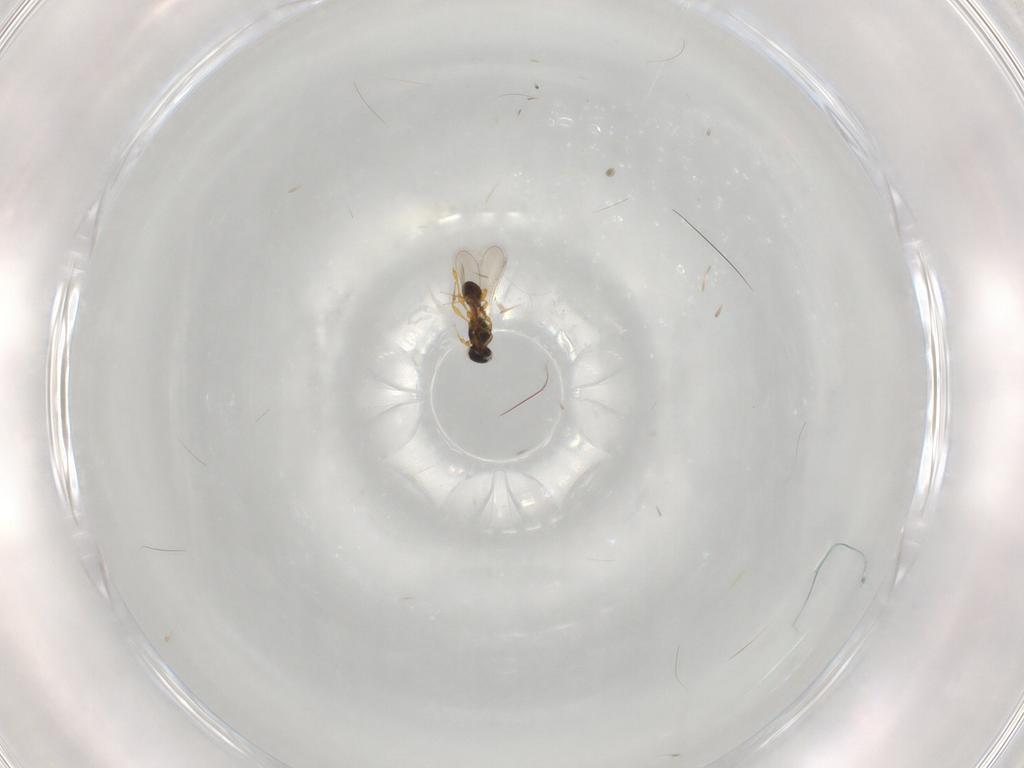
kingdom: Animalia
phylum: Arthropoda
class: Insecta
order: Hymenoptera
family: Platygastridae
